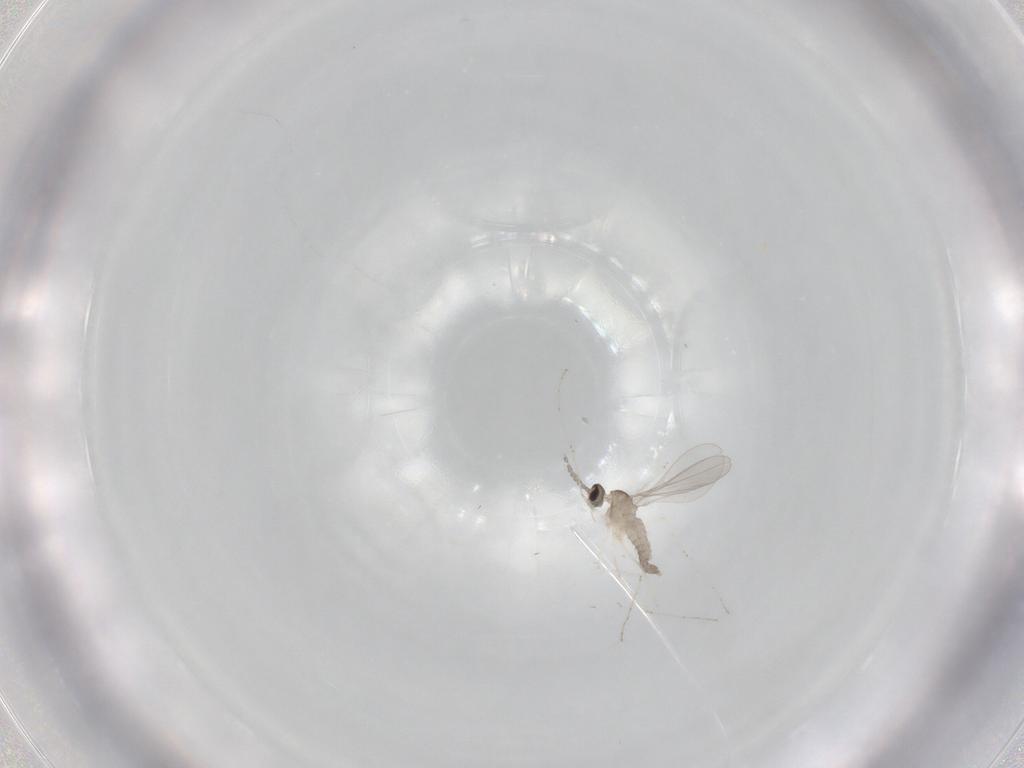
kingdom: Animalia
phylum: Arthropoda
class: Insecta
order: Diptera
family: Cecidomyiidae
